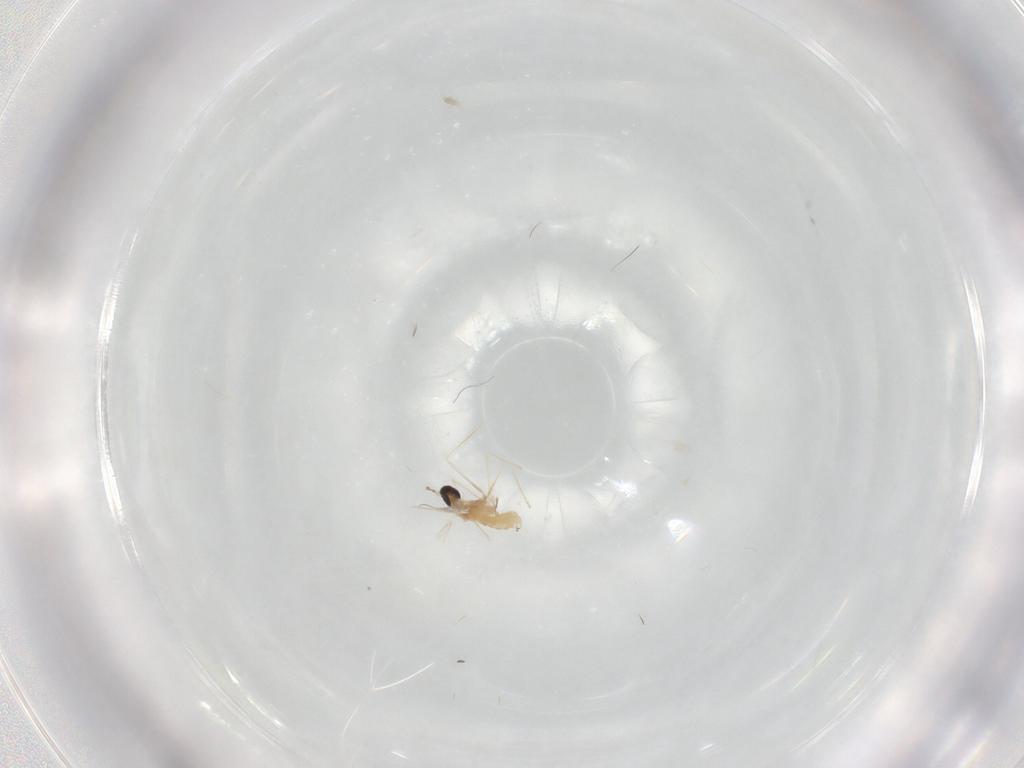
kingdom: Animalia
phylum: Arthropoda
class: Insecta
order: Diptera
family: Cecidomyiidae
